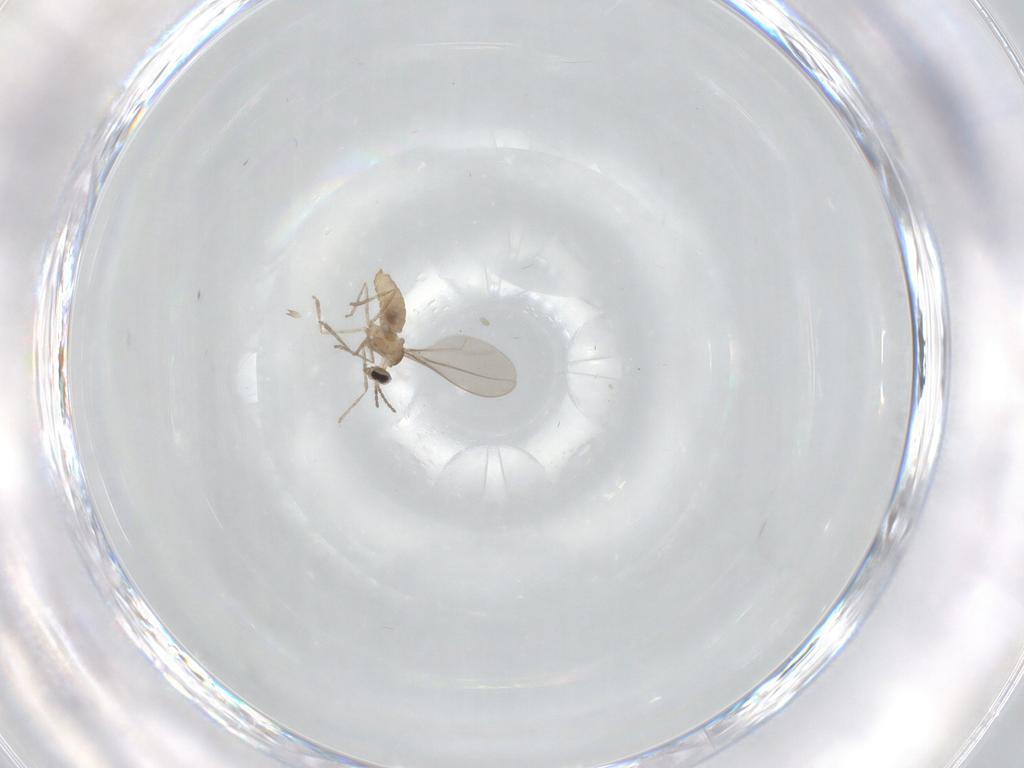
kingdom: Animalia
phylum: Arthropoda
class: Insecta
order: Diptera
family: Cecidomyiidae
